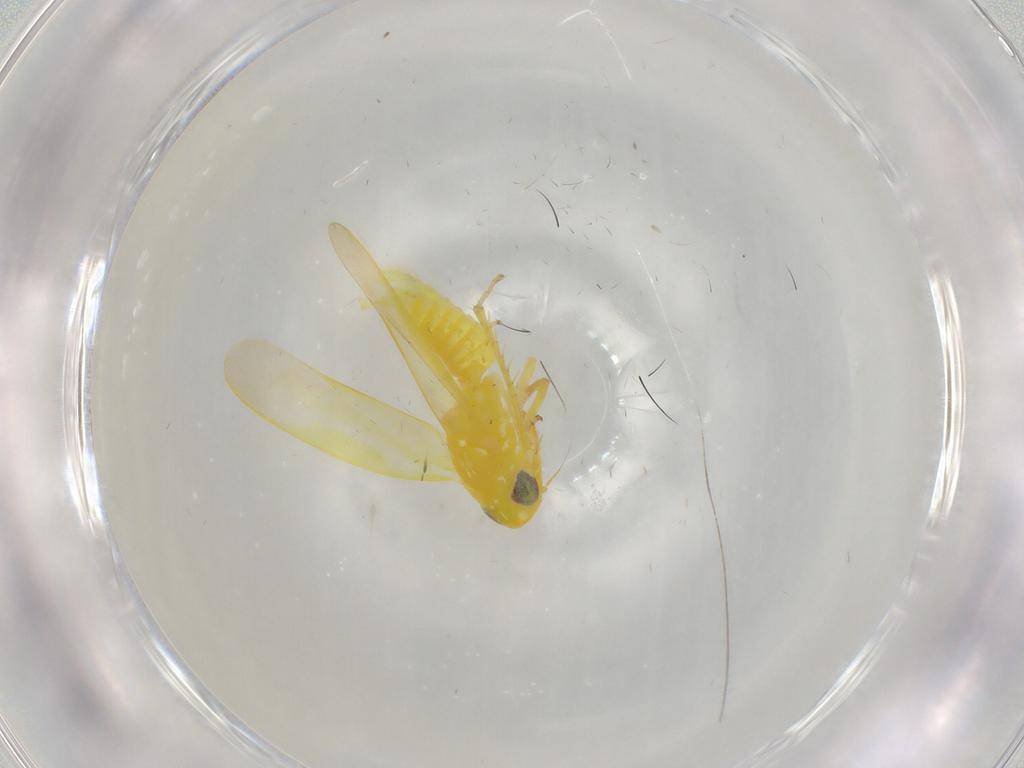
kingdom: Animalia
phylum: Arthropoda
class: Insecta
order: Hemiptera
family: Cicadellidae
